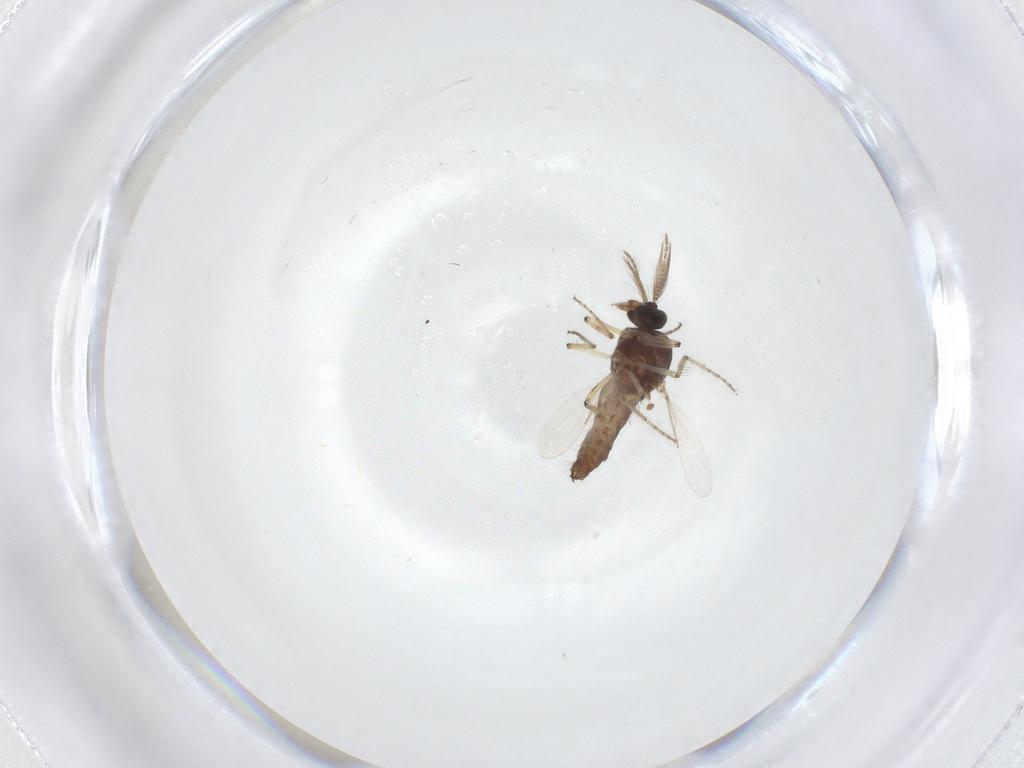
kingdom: Animalia
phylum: Arthropoda
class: Insecta
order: Diptera
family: Ceratopogonidae
